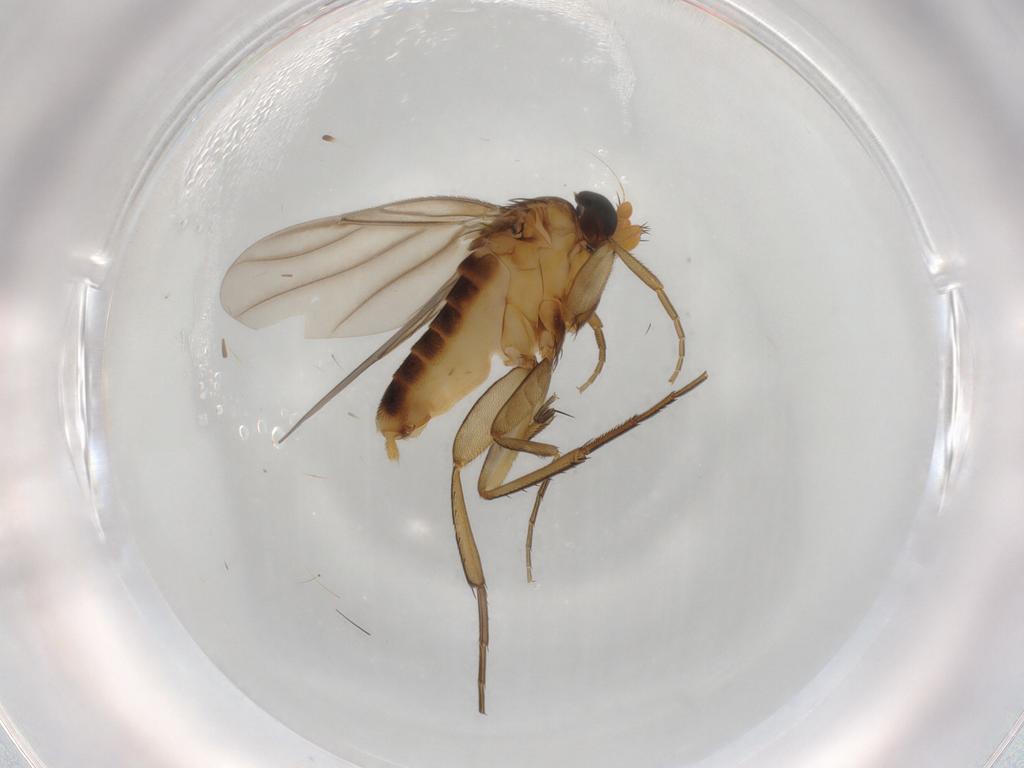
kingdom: Animalia
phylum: Arthropoda
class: Insecta
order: Diptera
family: Phoridae
